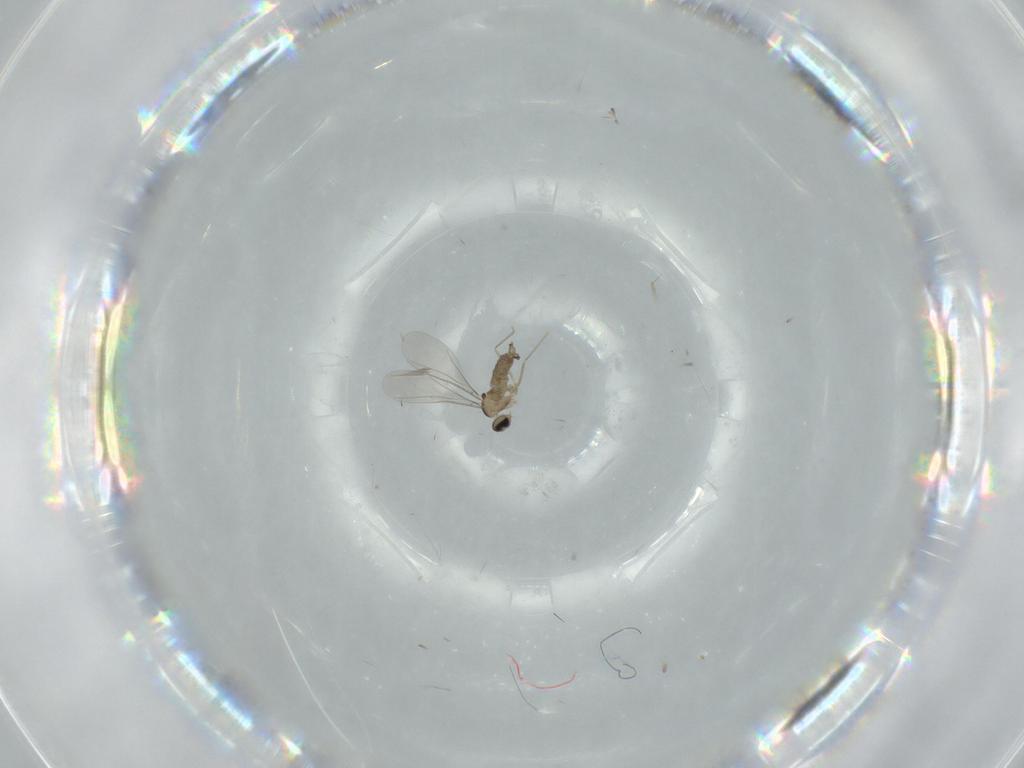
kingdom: Animalia
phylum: Arthropoda
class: Insecta
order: Diptera
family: Cecidomyiidae
